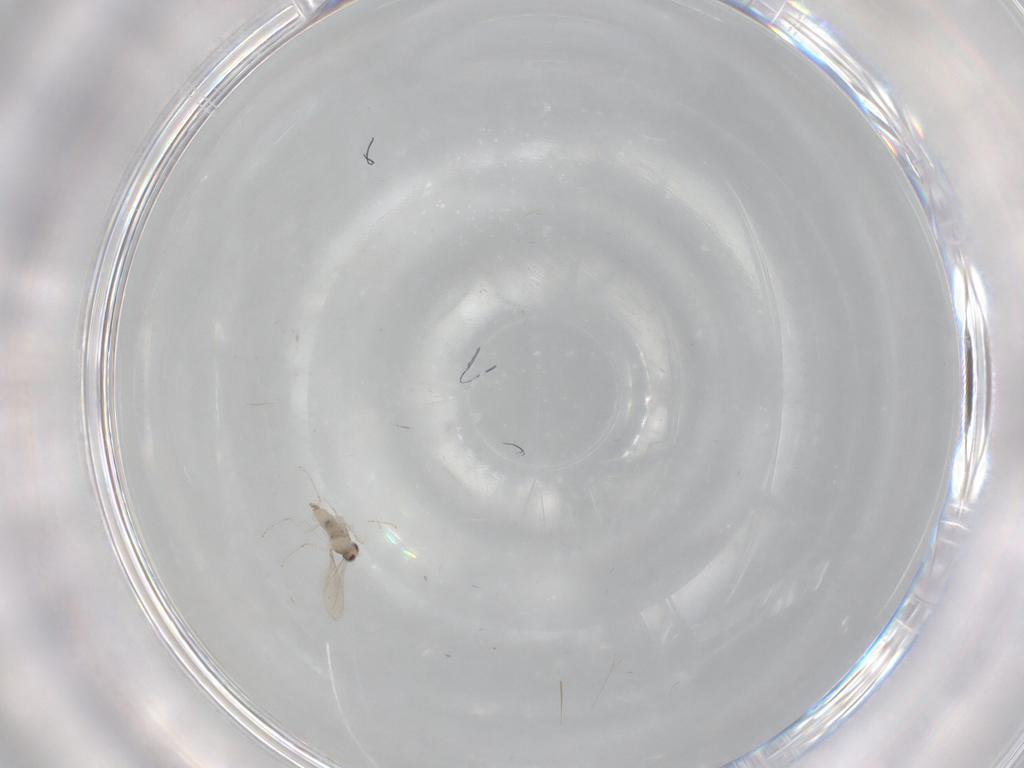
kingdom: Animalia
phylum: Arthropoda
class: Insecta
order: Diptera
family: Cecidomyiidae
